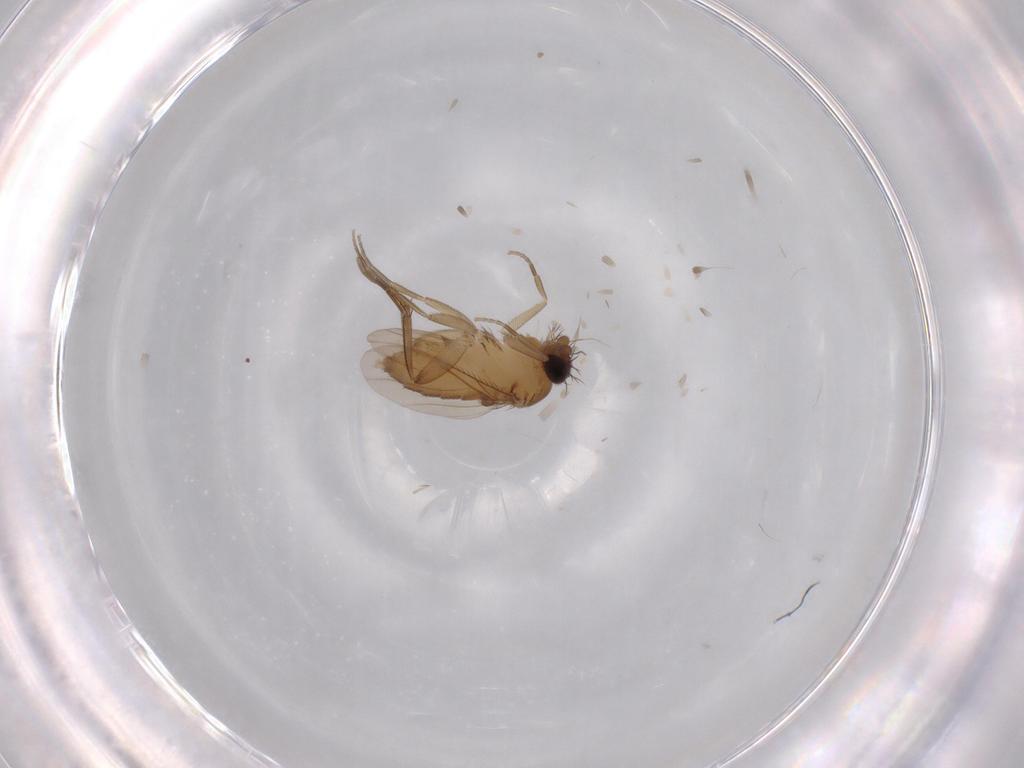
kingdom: Animalia
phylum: Arthropoda
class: Insecta
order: Diptera
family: Phoridae
